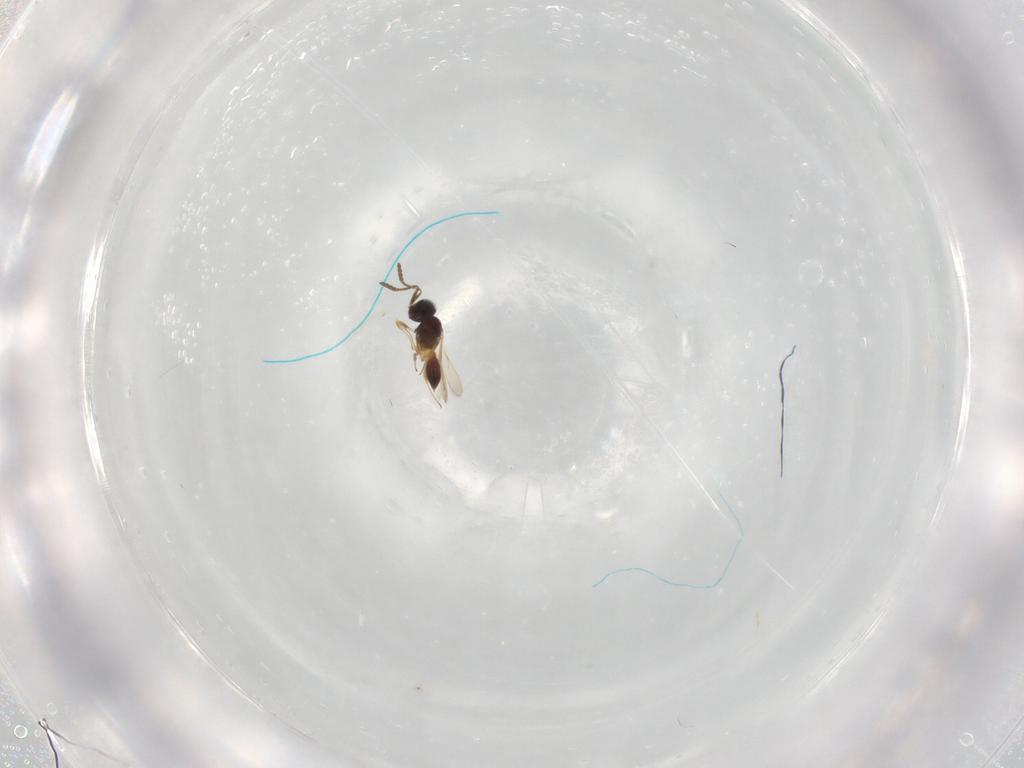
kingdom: Animalia
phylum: Arthropoda
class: Insecta
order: Hymenoptera
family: Scelionidae
